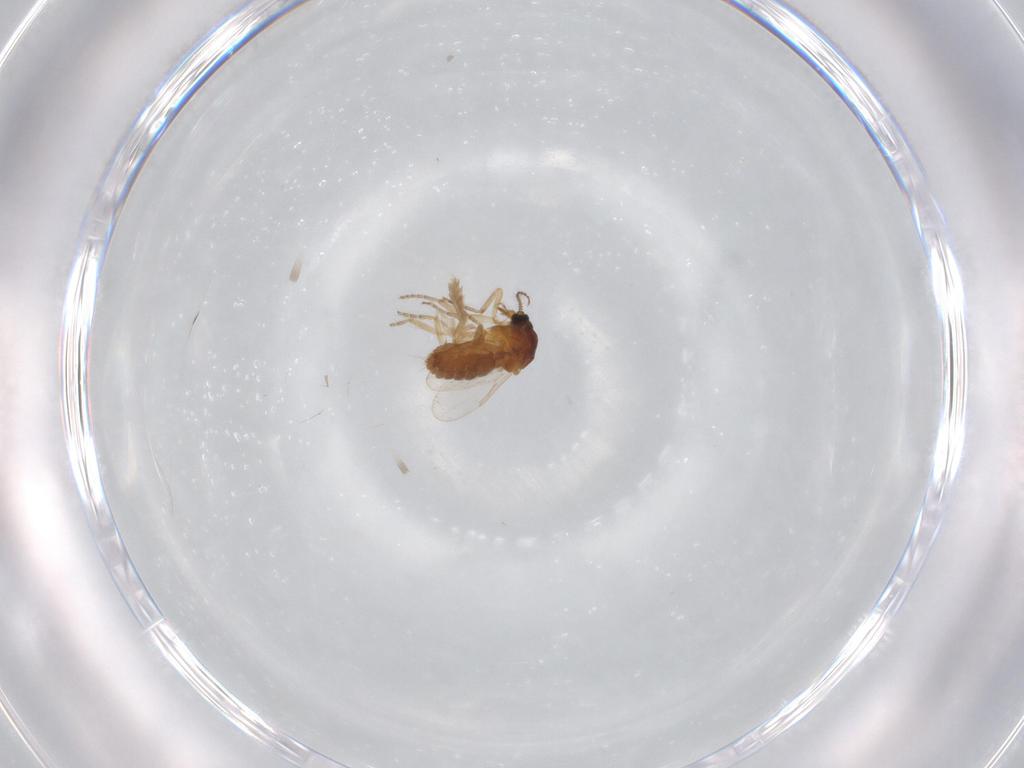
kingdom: Animalia
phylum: Arthropoda
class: Insecta
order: Diptera
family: Ceratopogonidae
